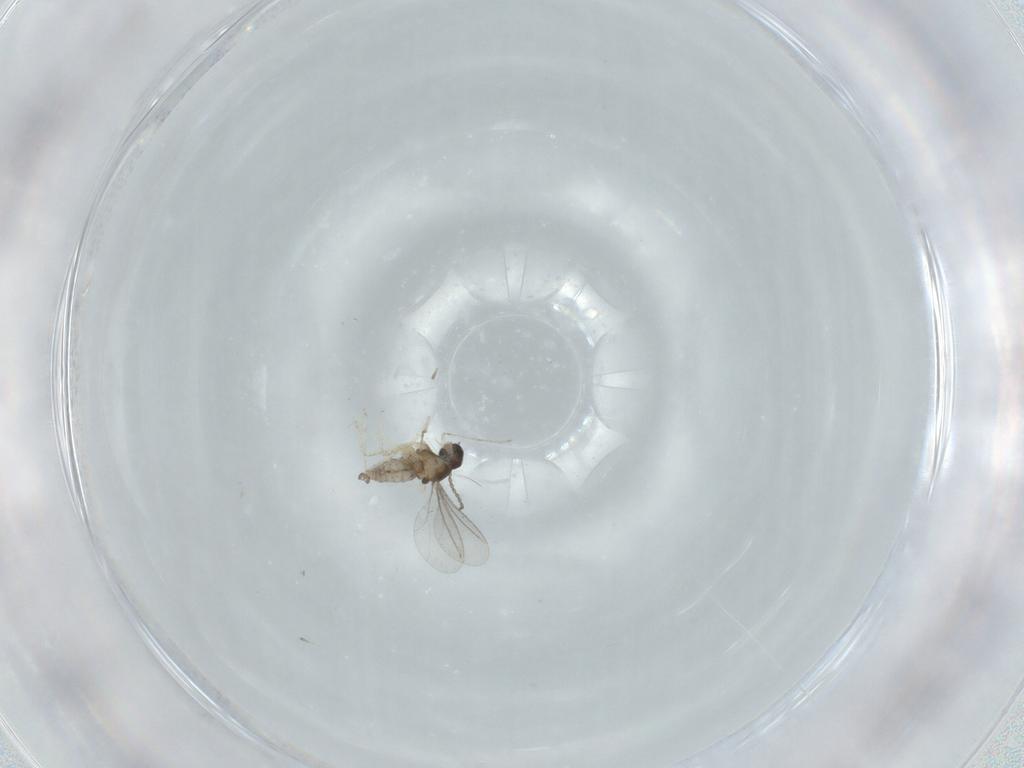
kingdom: Animalia
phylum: Arthropoda
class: Insecta
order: Diptera
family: Cecidomyiidae
